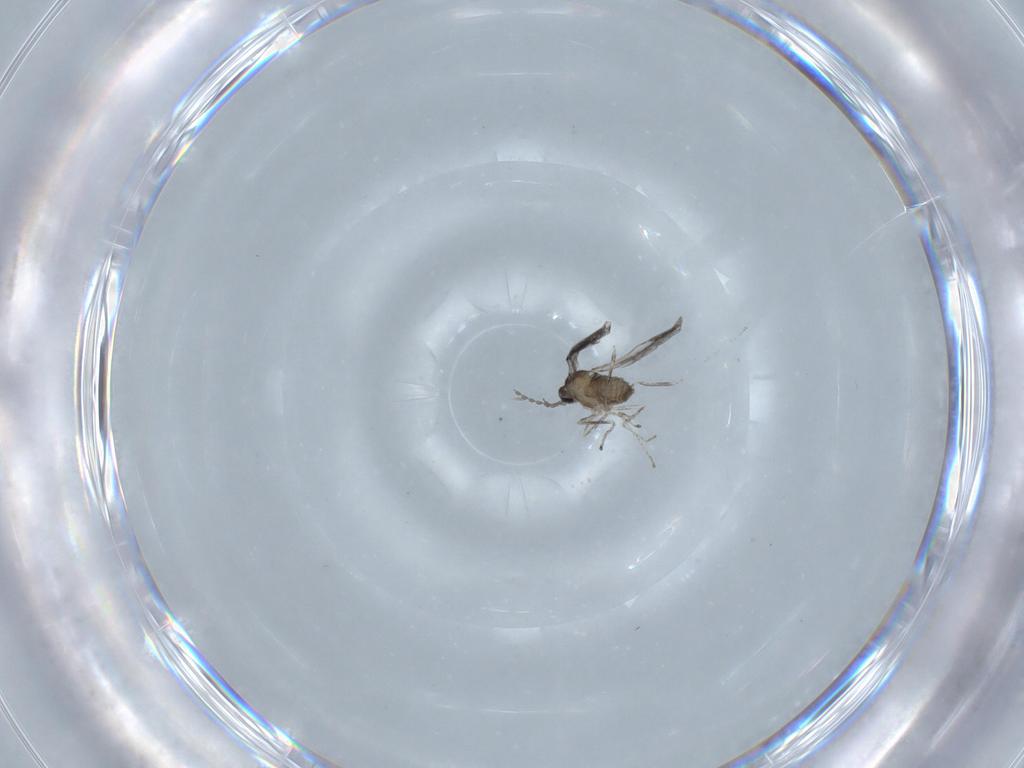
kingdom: Animalia
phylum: Arthropoda
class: Insecta
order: Diptera
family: Cecidomyiidae
